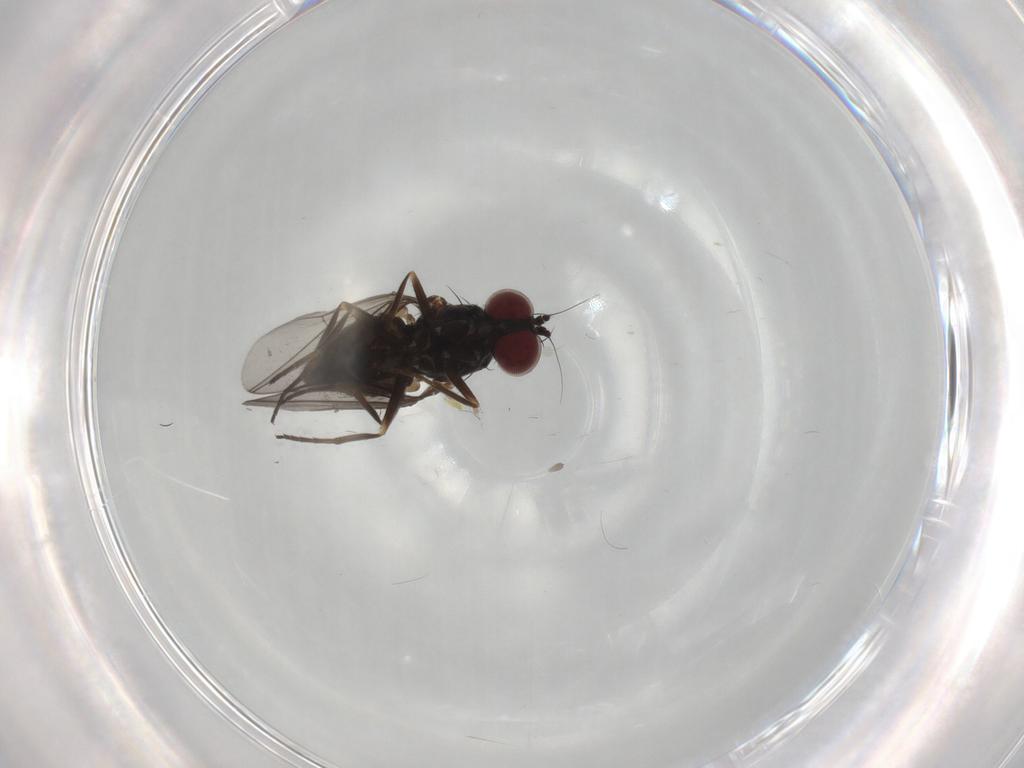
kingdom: Animalia
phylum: Arthropoda
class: Insecta
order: Diptera
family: Dolichopodidae
